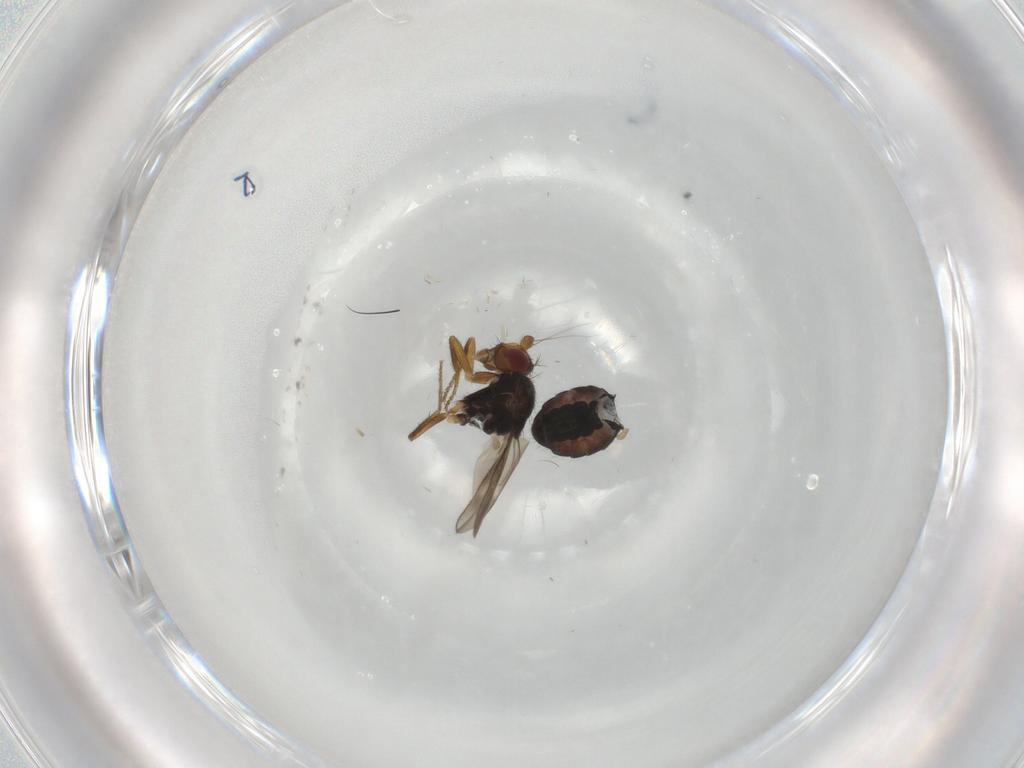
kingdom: Animalia
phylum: Arthropoda
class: Insecta
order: Diptera
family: Sphaeroceridae
